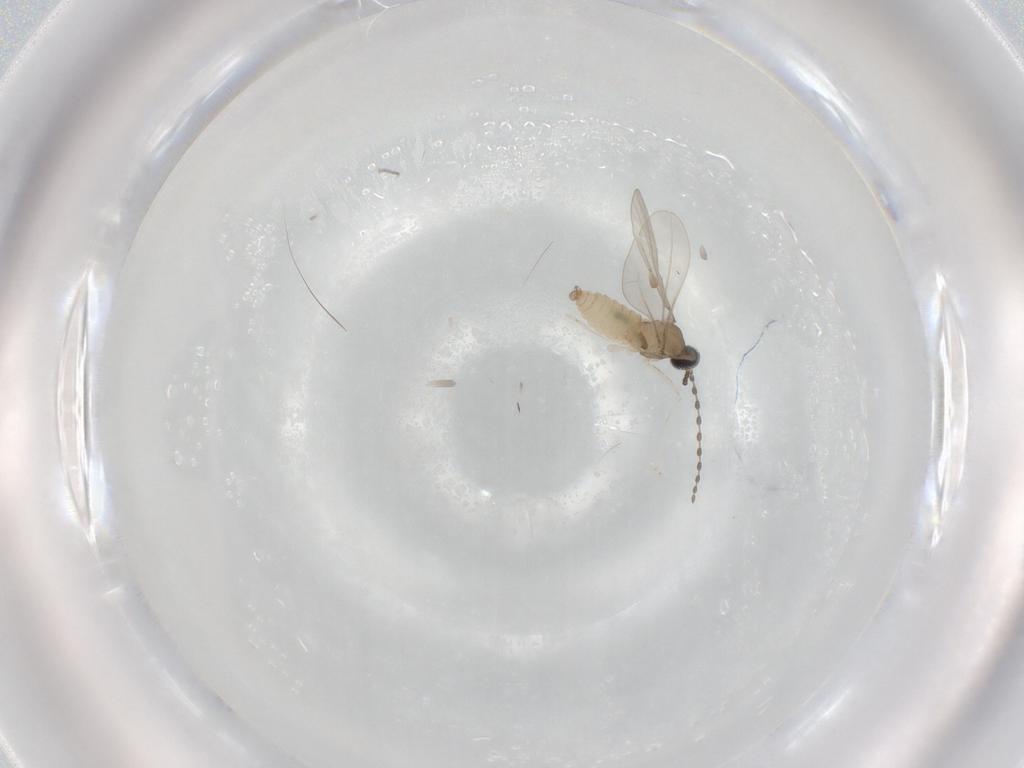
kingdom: Animalia
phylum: Arthropoda
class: Insecta
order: Diptera
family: Cecidomyiidae
